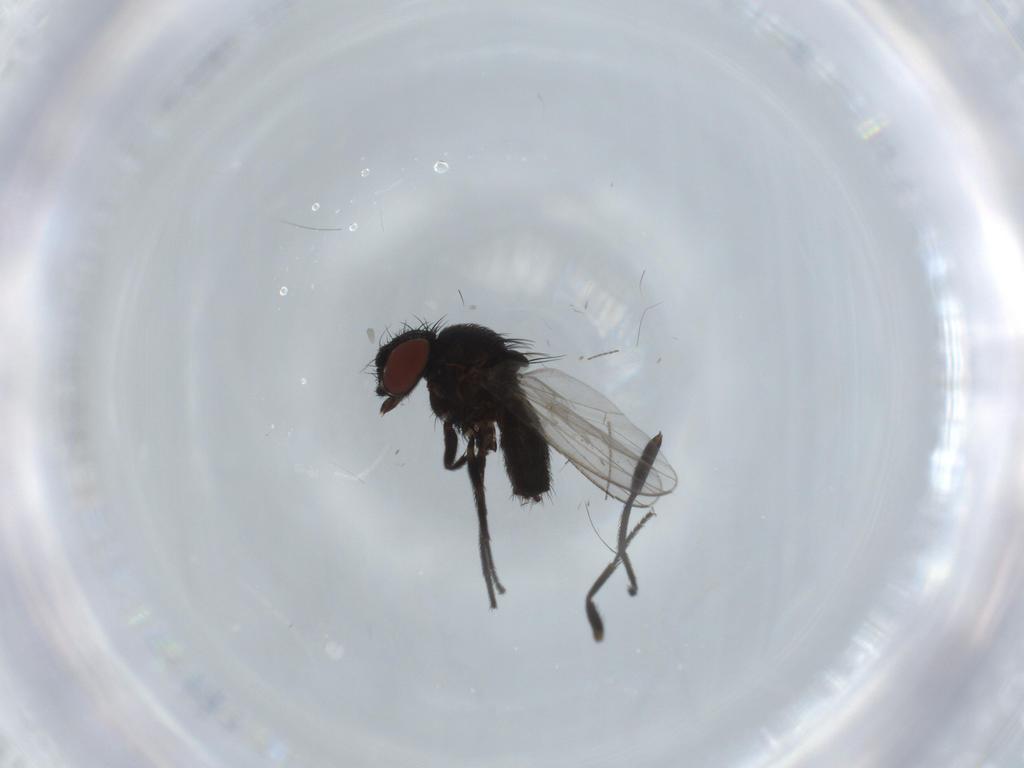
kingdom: Animalia
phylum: Arthropoda
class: Insecta
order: Diptera
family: Milichiidae
